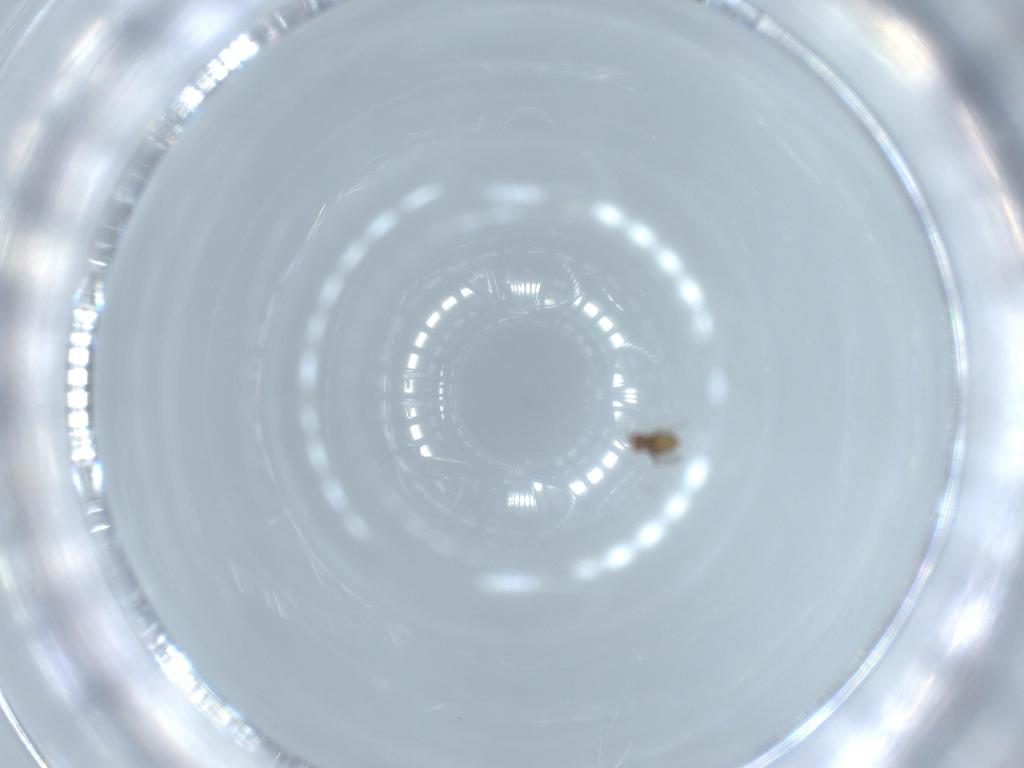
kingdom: Animalia
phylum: Arthropoda
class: Insecta
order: Hymenoptera
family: Trichogrammatidae
